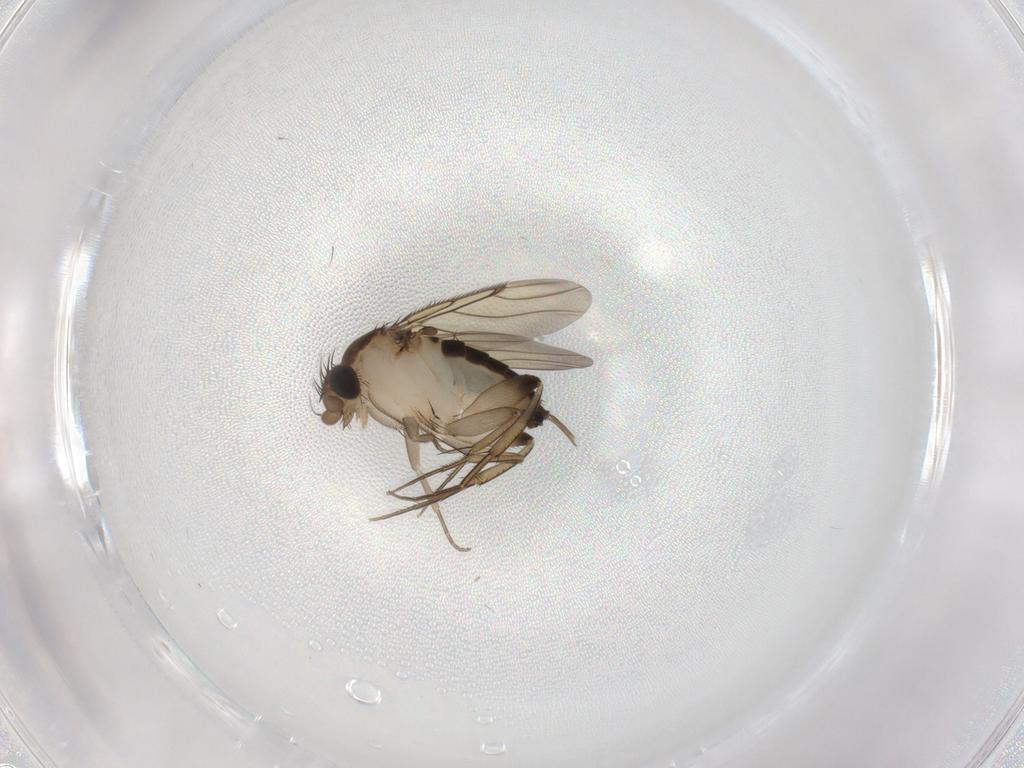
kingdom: Animalia
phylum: Arthropoda
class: Insecta
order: Diptera
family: Phoridae
